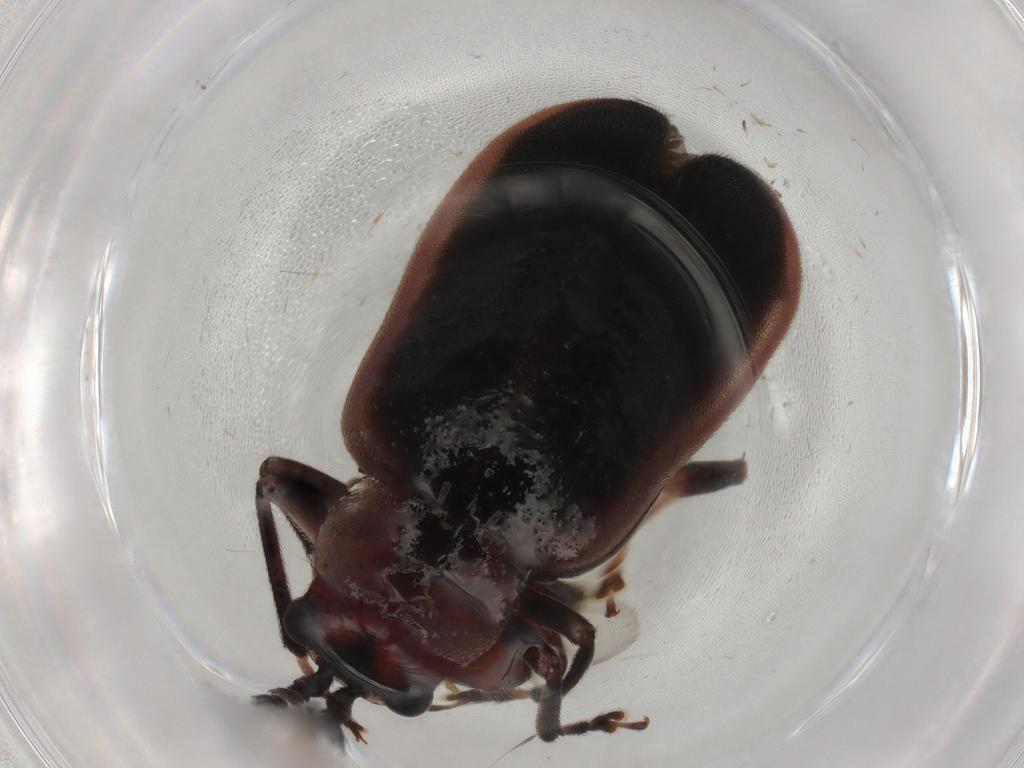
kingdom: Animalia
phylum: Arthropoda
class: Insecta
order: Coleoptera
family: Chrysomelidae
